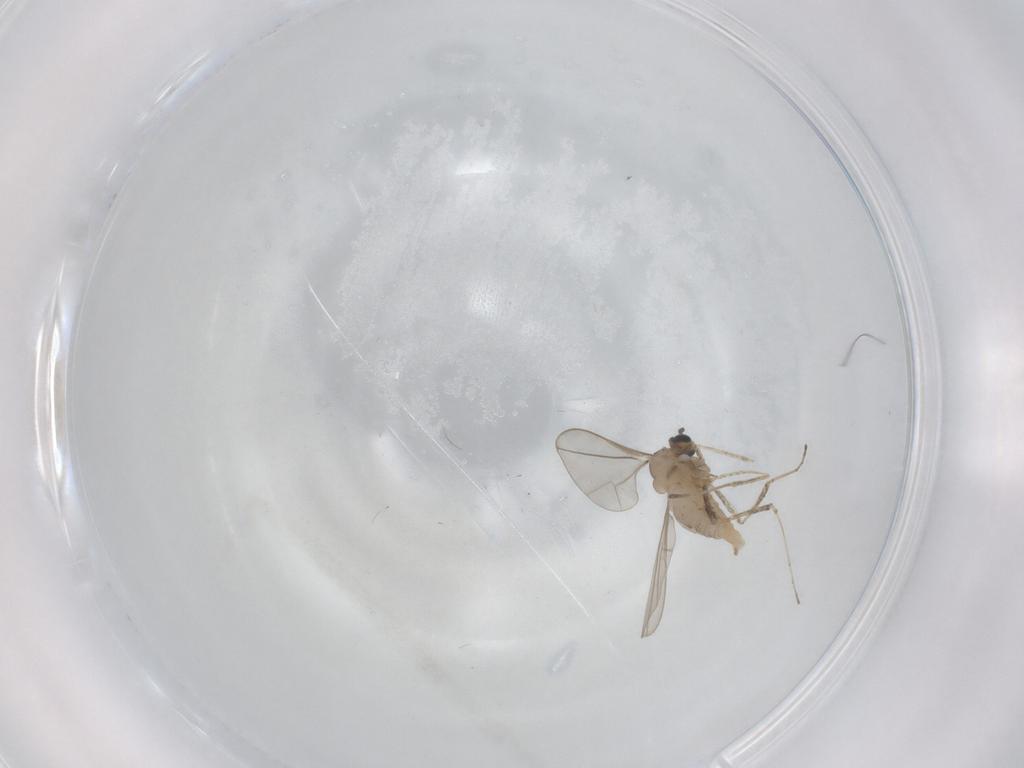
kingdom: Animalia
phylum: Arthropoda
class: Insecta
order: Diptera
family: Cecidomyiidae
